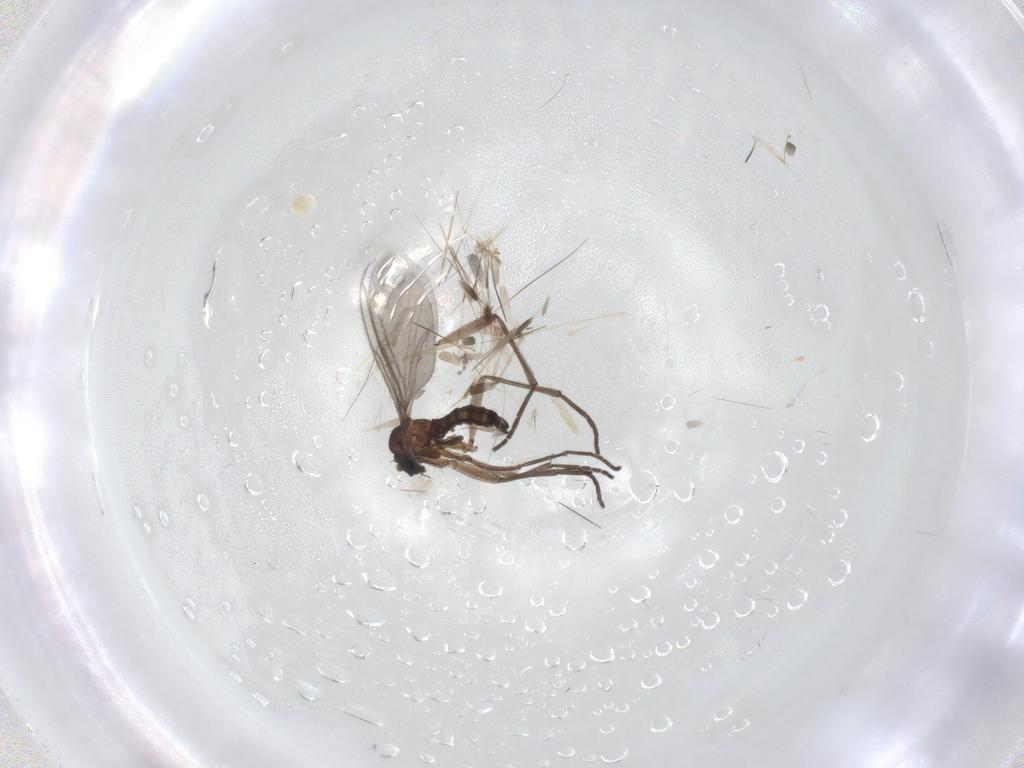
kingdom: Animalia
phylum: Arthropoda
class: Insecta
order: Diptera
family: Sciaridae
